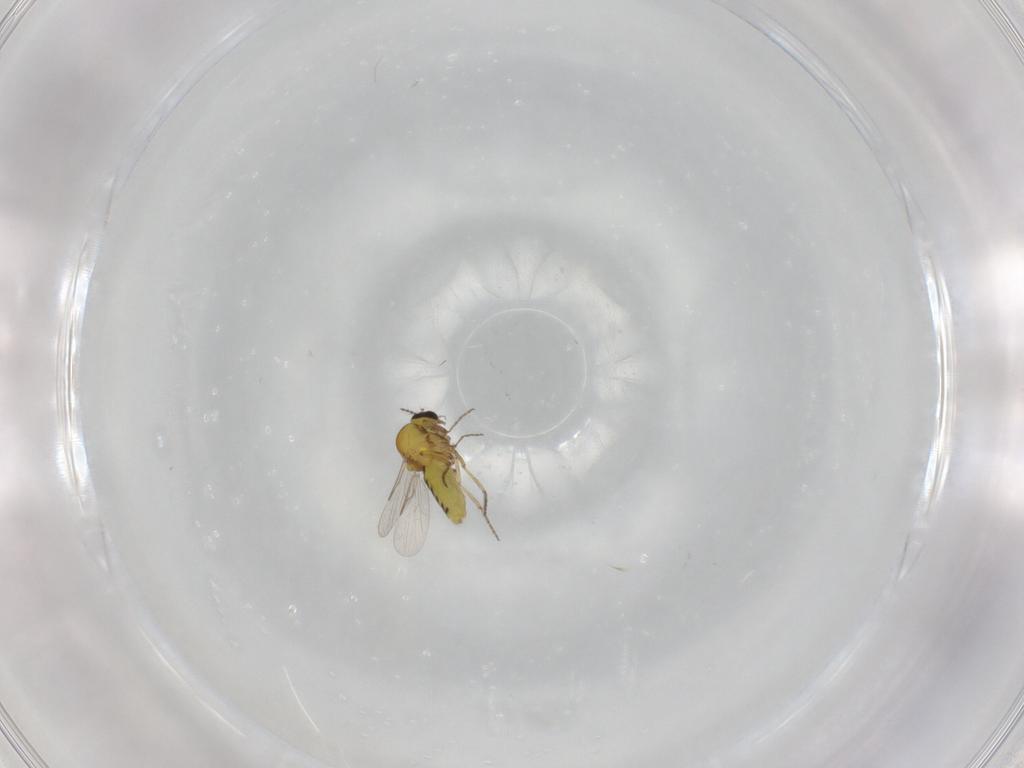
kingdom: Animalia
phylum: Arthropoda
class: Insecta
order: Diptera
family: Ceratopogonidae
